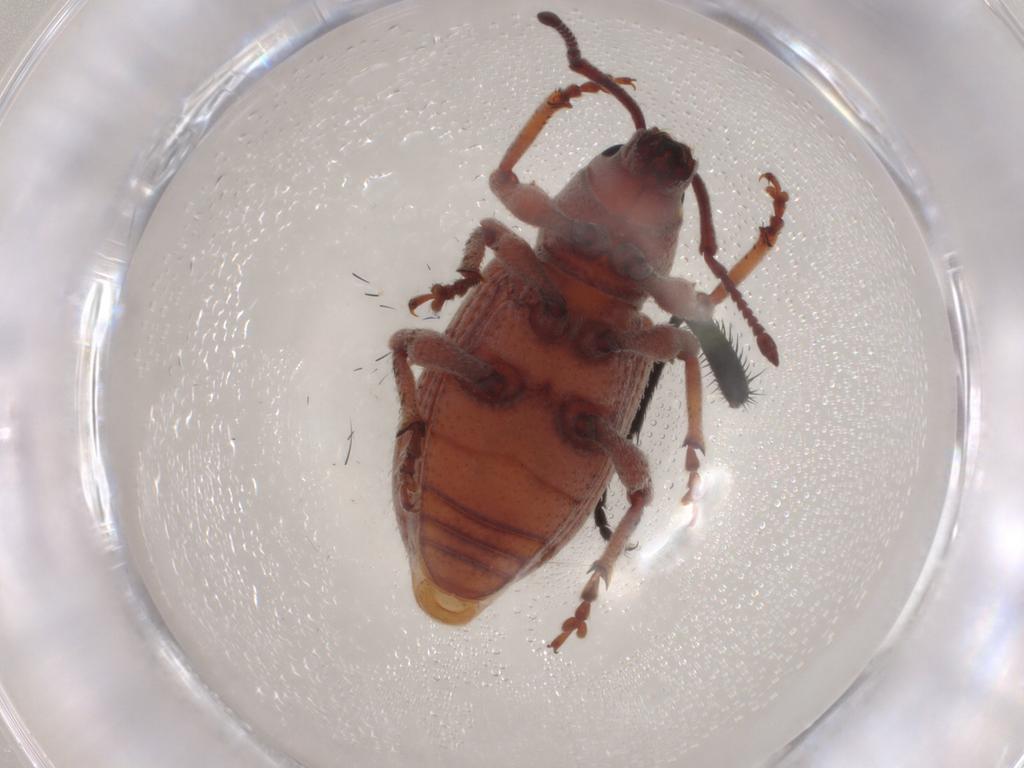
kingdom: Animalia
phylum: Arthropoda
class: Insecta
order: Coleoptera
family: Curculionidae
